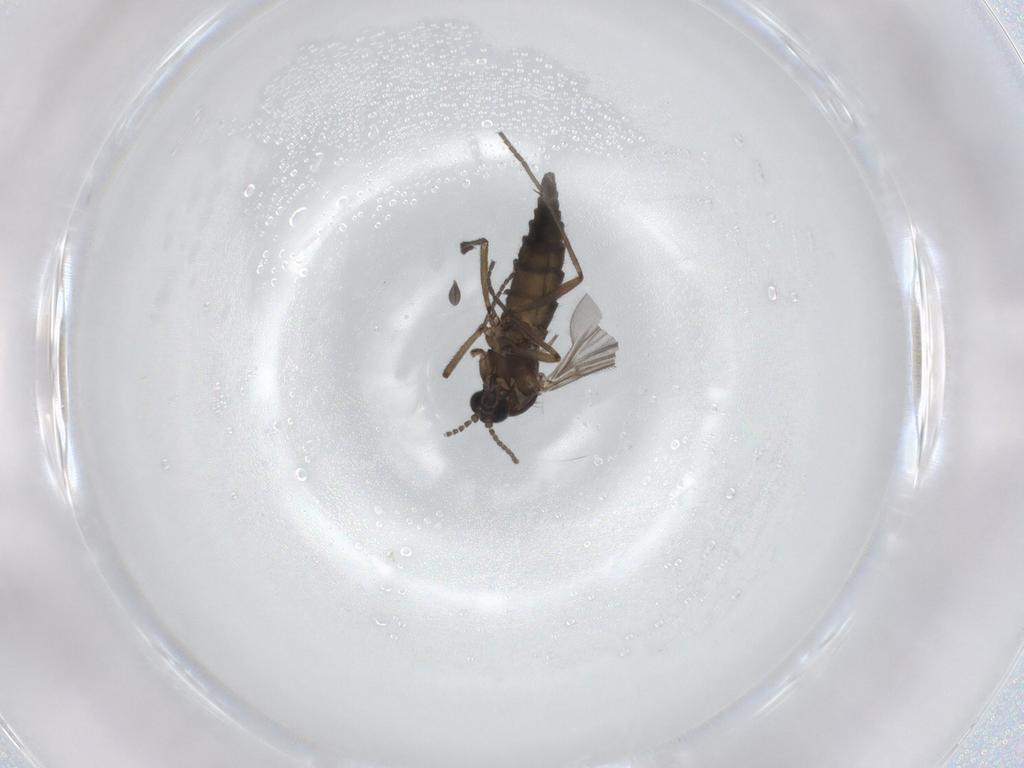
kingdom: Animalia
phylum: Arthropoda
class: Insecta
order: Diptera
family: Sciaridae
